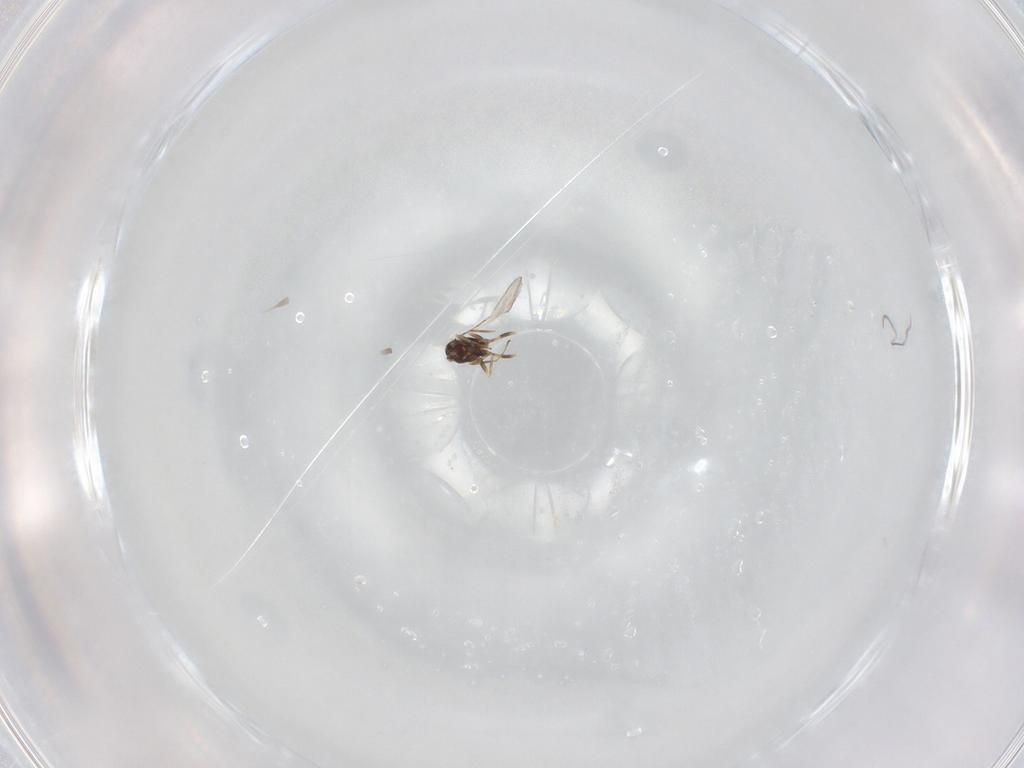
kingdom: Animalia
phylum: Arthropoda
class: Insecta
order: Hymenoptera
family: Mymaridae
